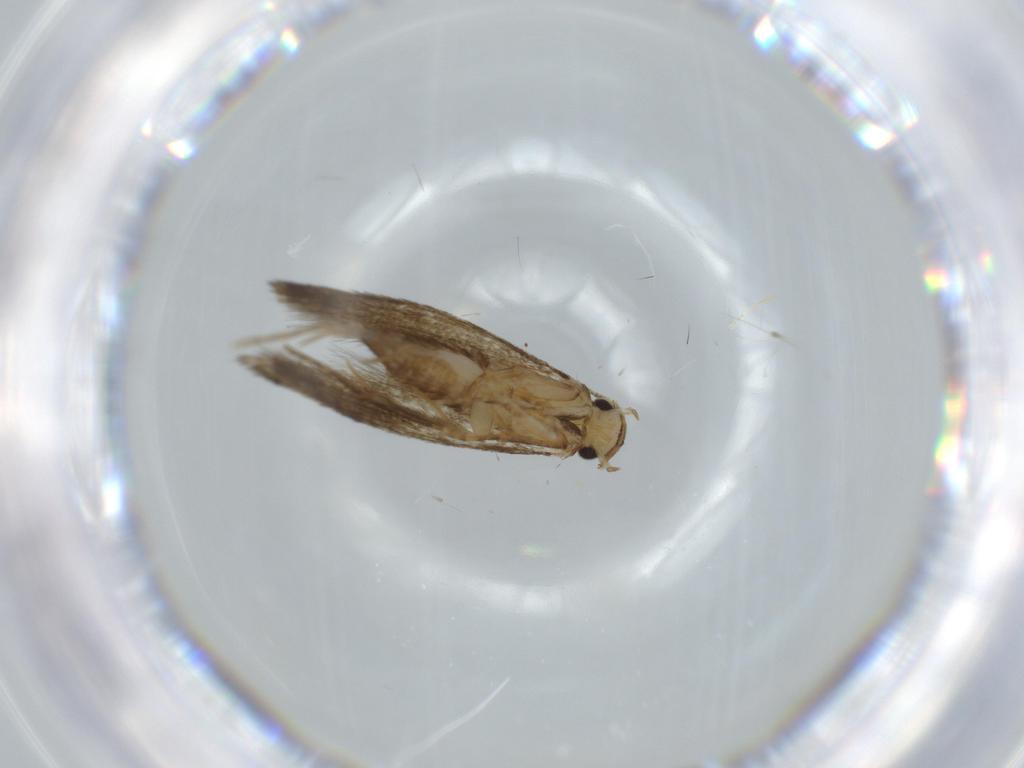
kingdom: Animalia
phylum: Arthropoda
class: Insecta
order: Lepidoptera
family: Tineidae
